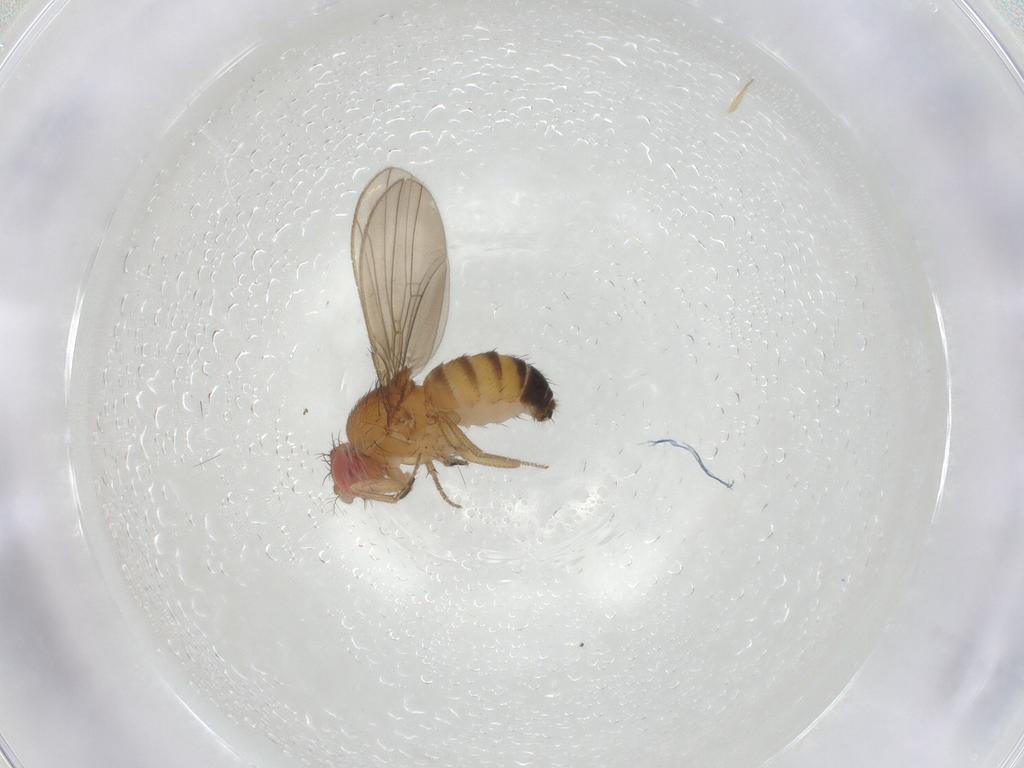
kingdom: Animalia
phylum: Arthropoda
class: Insecta
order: Diptera
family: Drosophilidae
